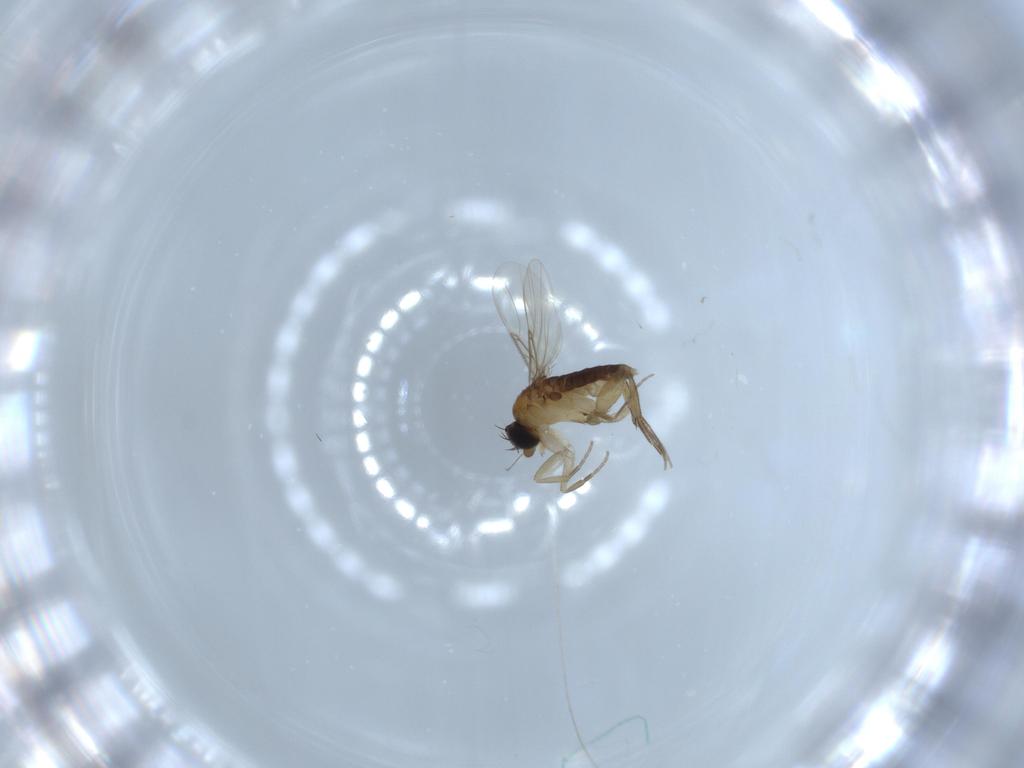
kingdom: Animalia
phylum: Arthropoda
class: Insecta
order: Diptera
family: Phoridae
